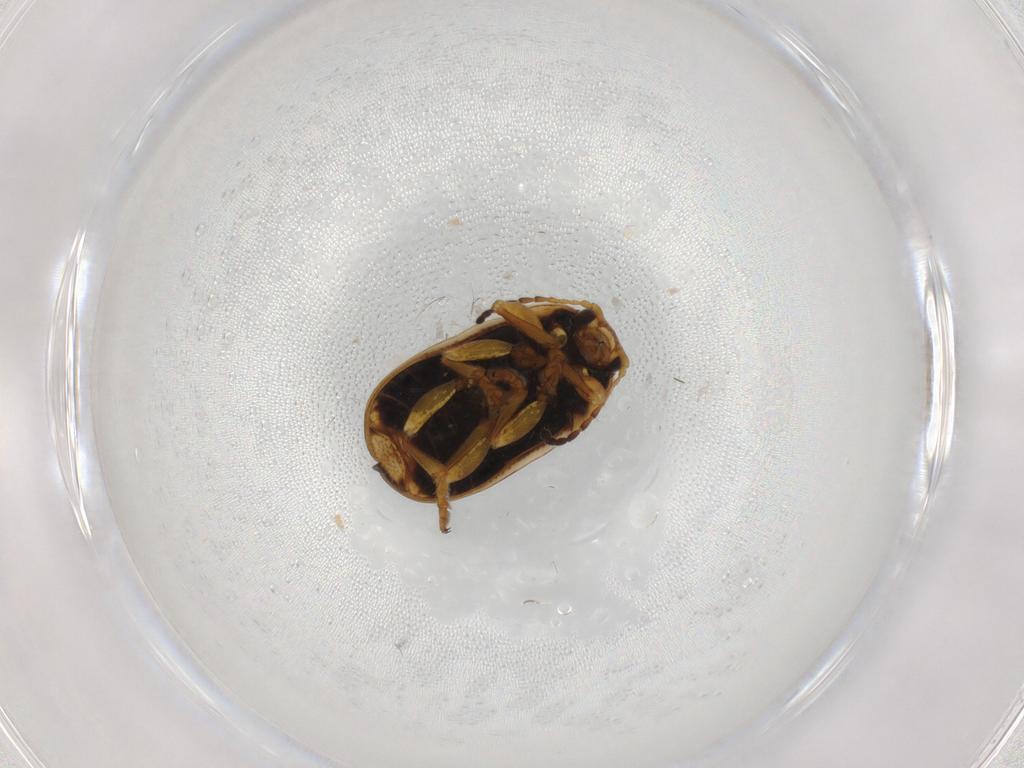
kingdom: Animalia
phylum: Arthropoda
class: Insecta
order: Coleoptera
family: Chrysomelidae
